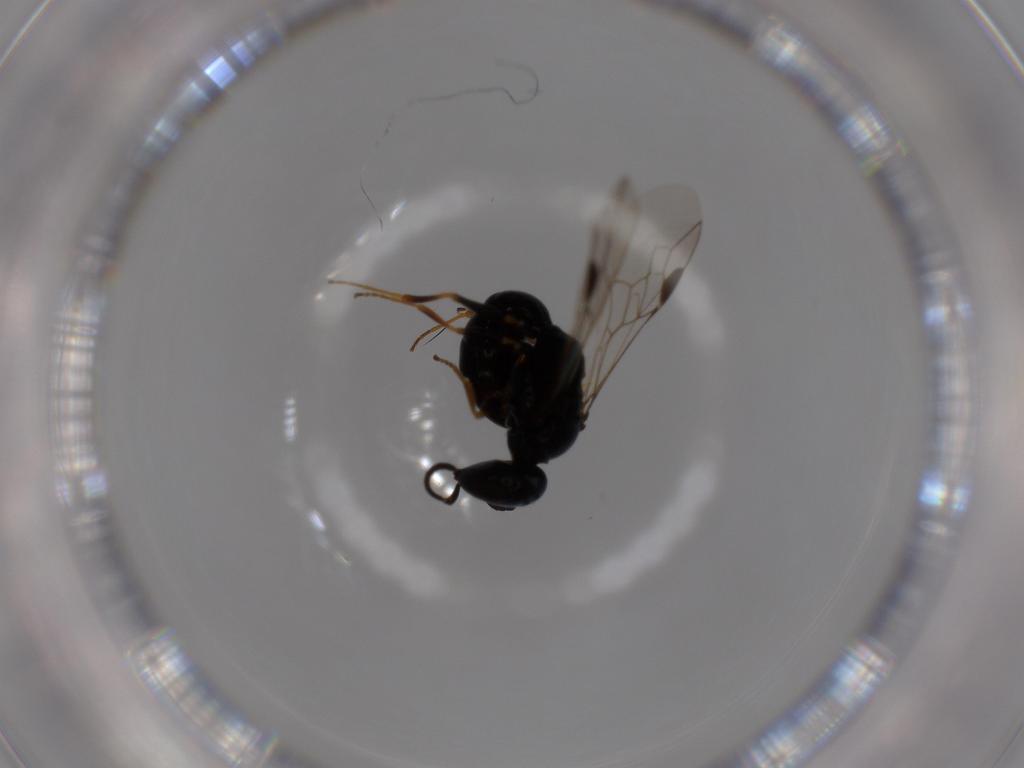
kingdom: Animalia
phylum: Arthropoda
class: Insecta
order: Hymenoptera
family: Crabronidae
